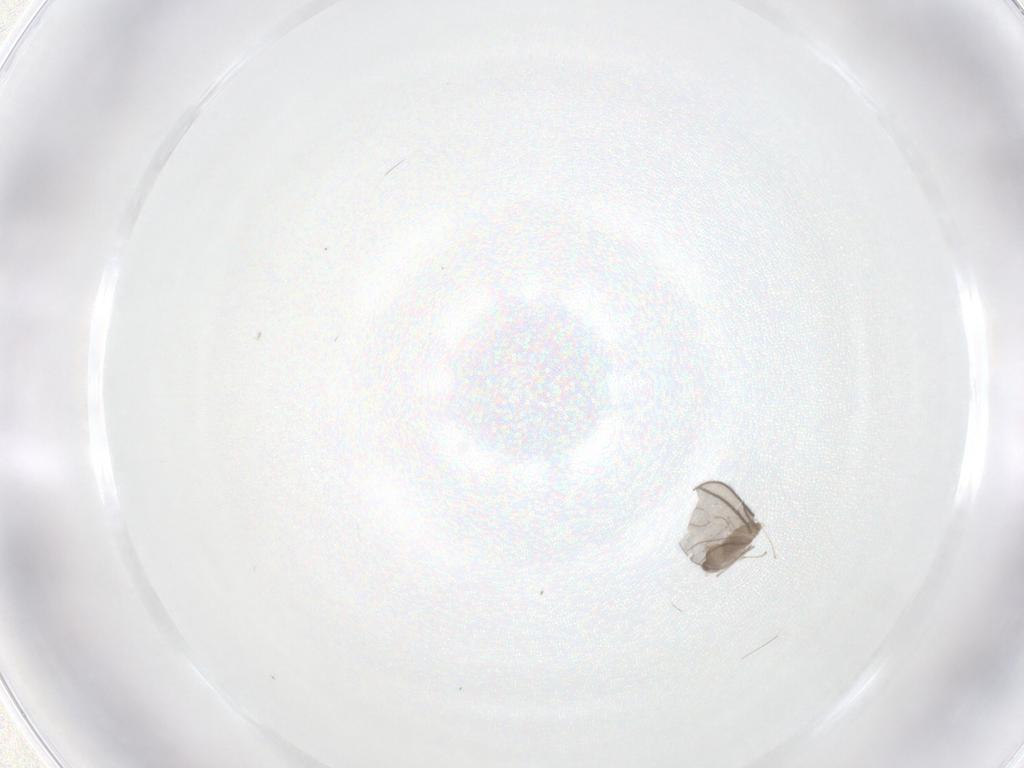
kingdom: Animalia
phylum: Arthropoda
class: Insecta
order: Diptera
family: Cecidomyiidae
